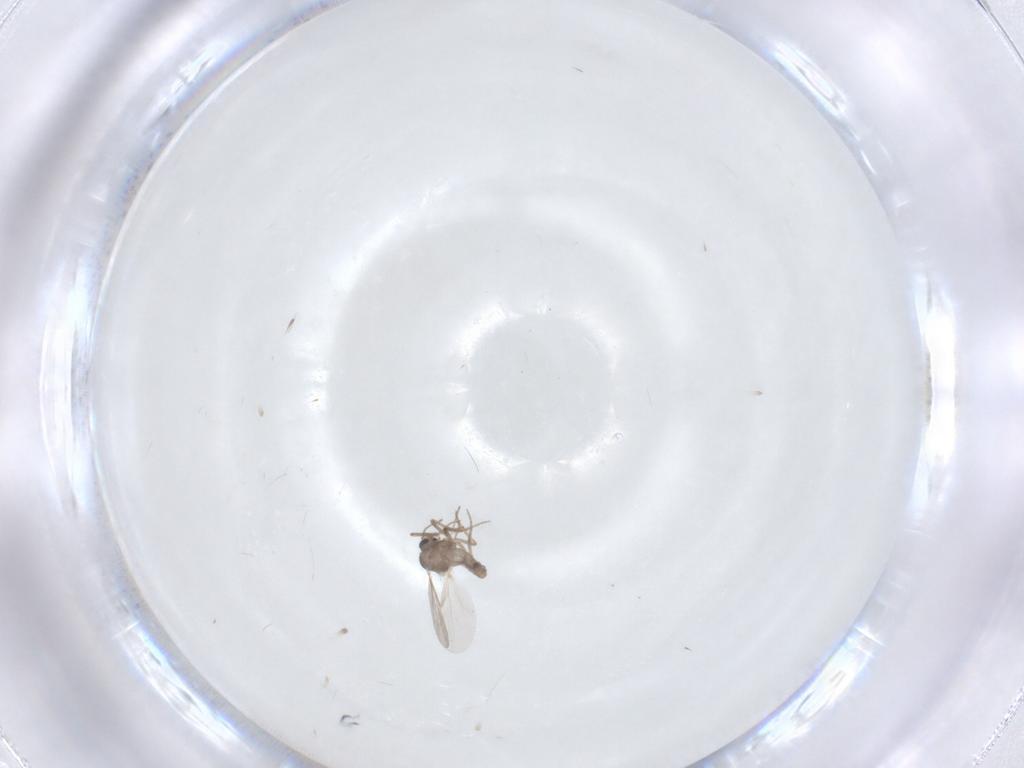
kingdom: Animalia
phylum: Arthropoda
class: Insecta
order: Diptera
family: Ceratopogonidae
